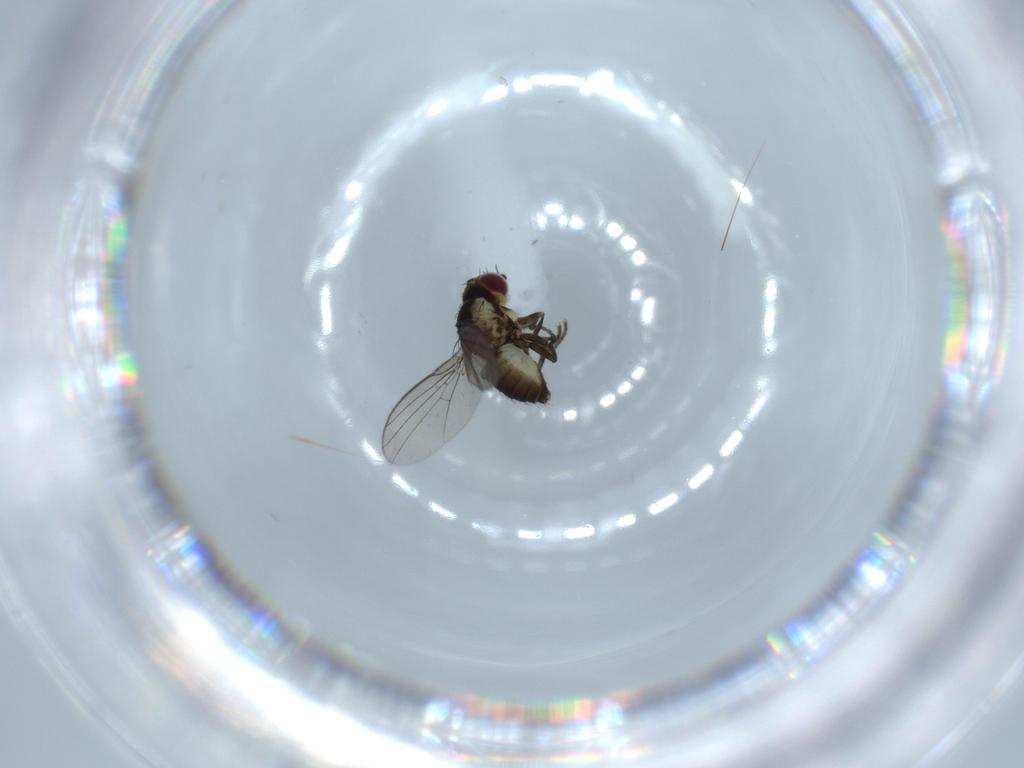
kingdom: Animalia
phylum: Arthropoda
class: Insecta
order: Diptera
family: Agromyzidae
